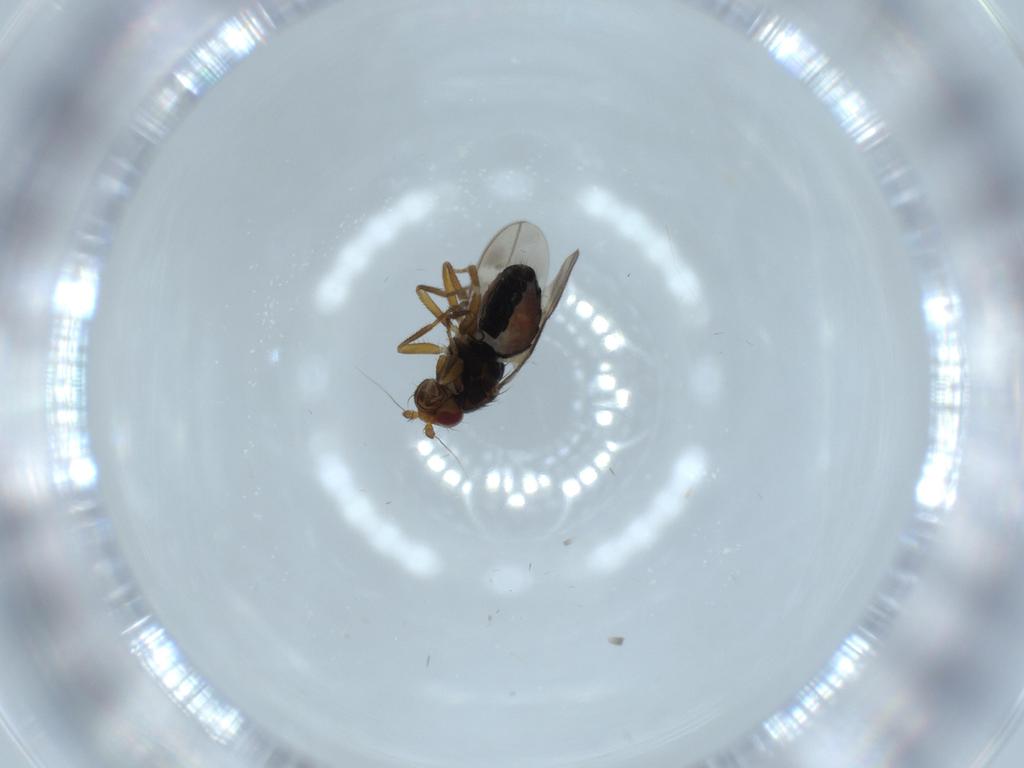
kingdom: Animalia
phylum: Arthropoda
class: Insecta
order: Diptera
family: Sphaeroceridae
